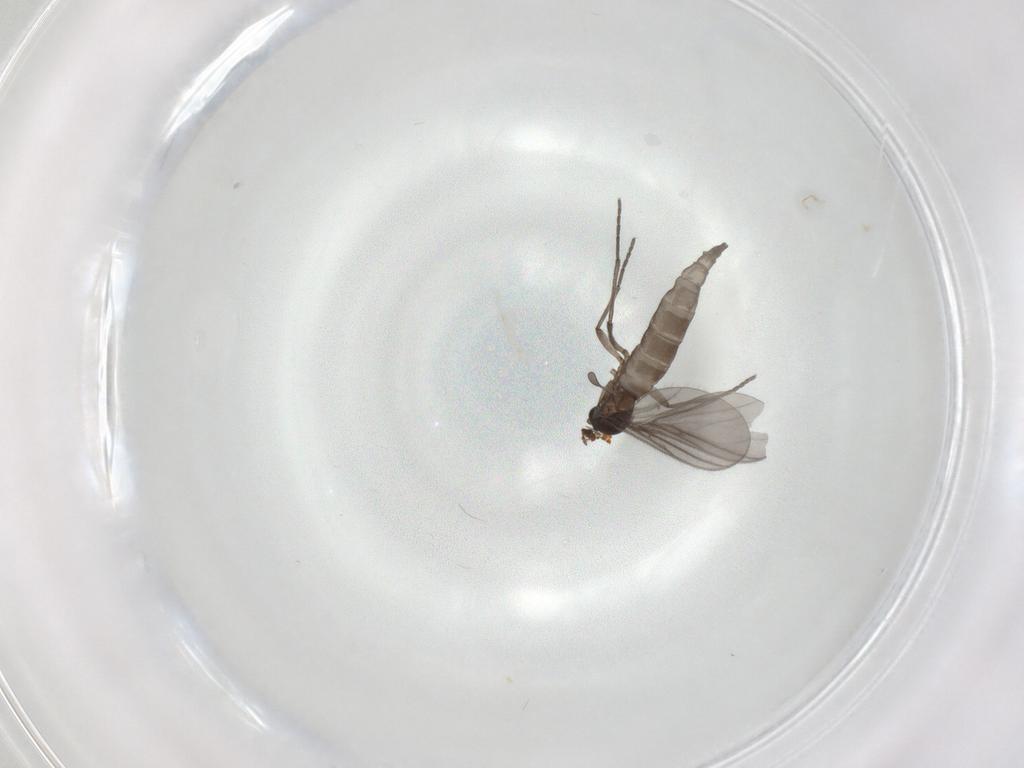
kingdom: Animalia
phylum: Arthropoda
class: Insecta
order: Diptera
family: Sciaridae
